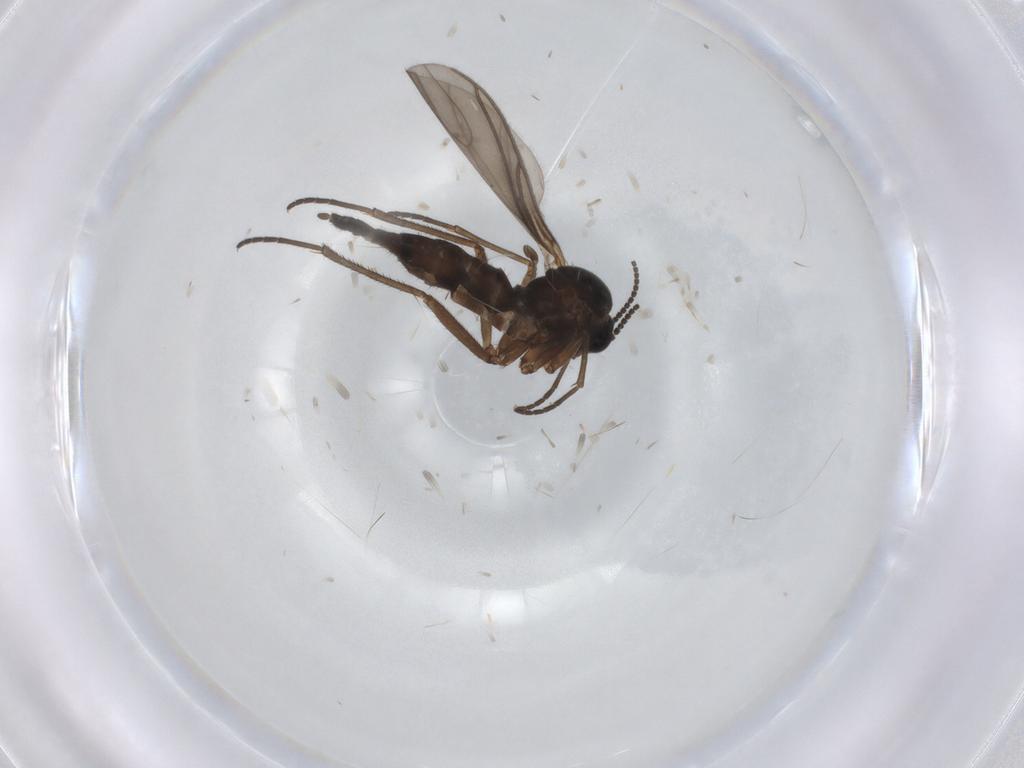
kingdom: Animalia
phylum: Arthropoda
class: Insecta
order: Diptera
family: Sciaridae
